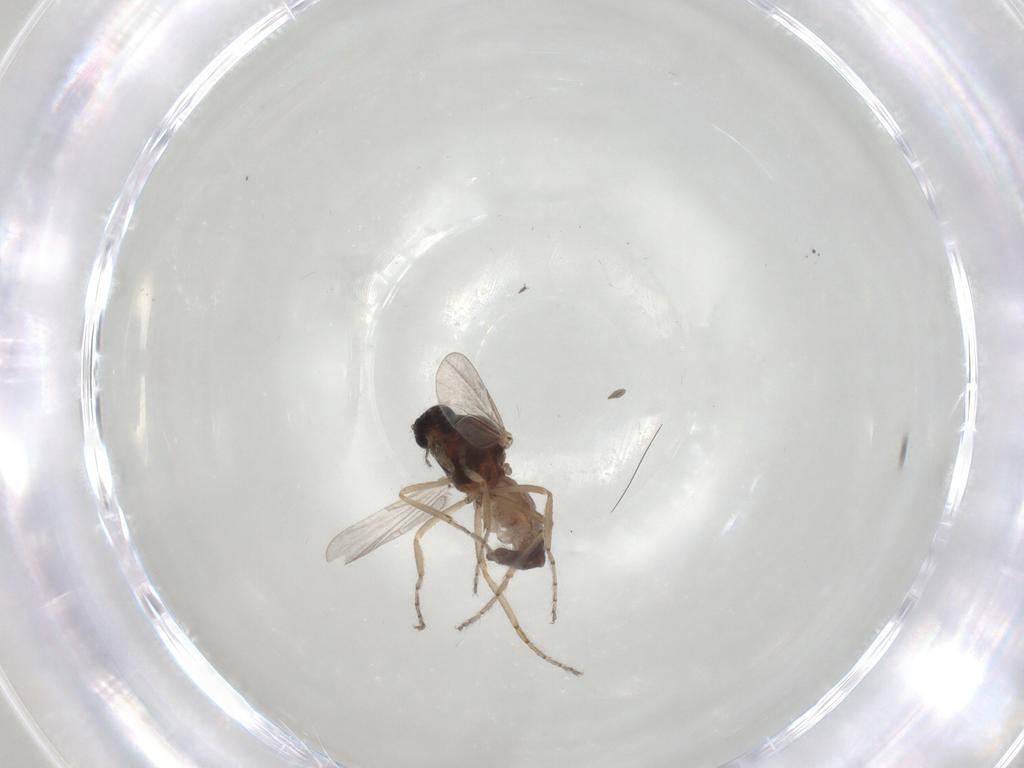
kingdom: Animalia
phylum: Arthropoda
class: Insecta
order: Diptera
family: Ceratopogonidae
